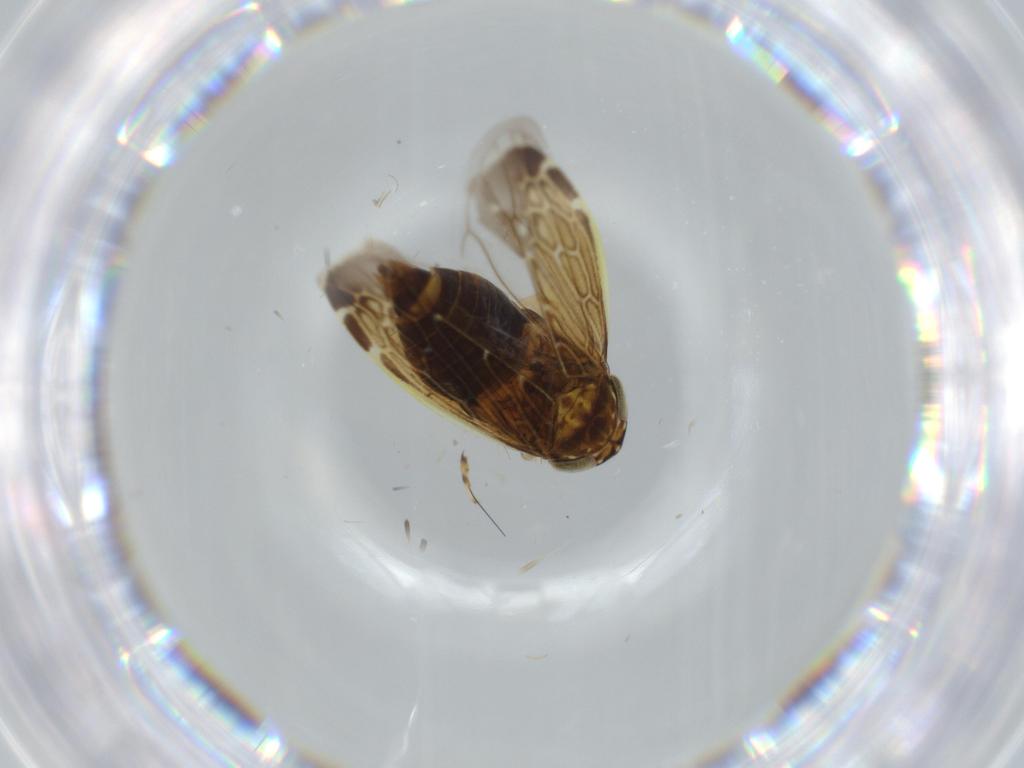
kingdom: Animalia
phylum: Arthropoda
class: Insecta
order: Hemiptera
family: Cicadellidae
